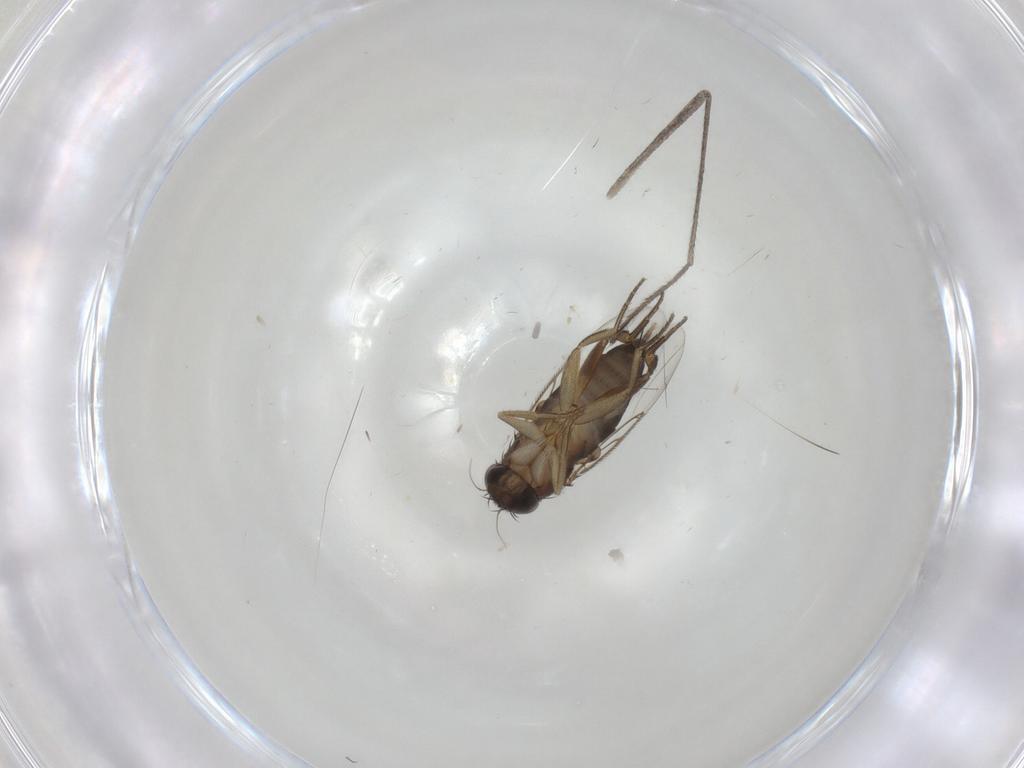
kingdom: Animalia
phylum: Arthropoda
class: Insecta
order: Diptera
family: Phoridae
